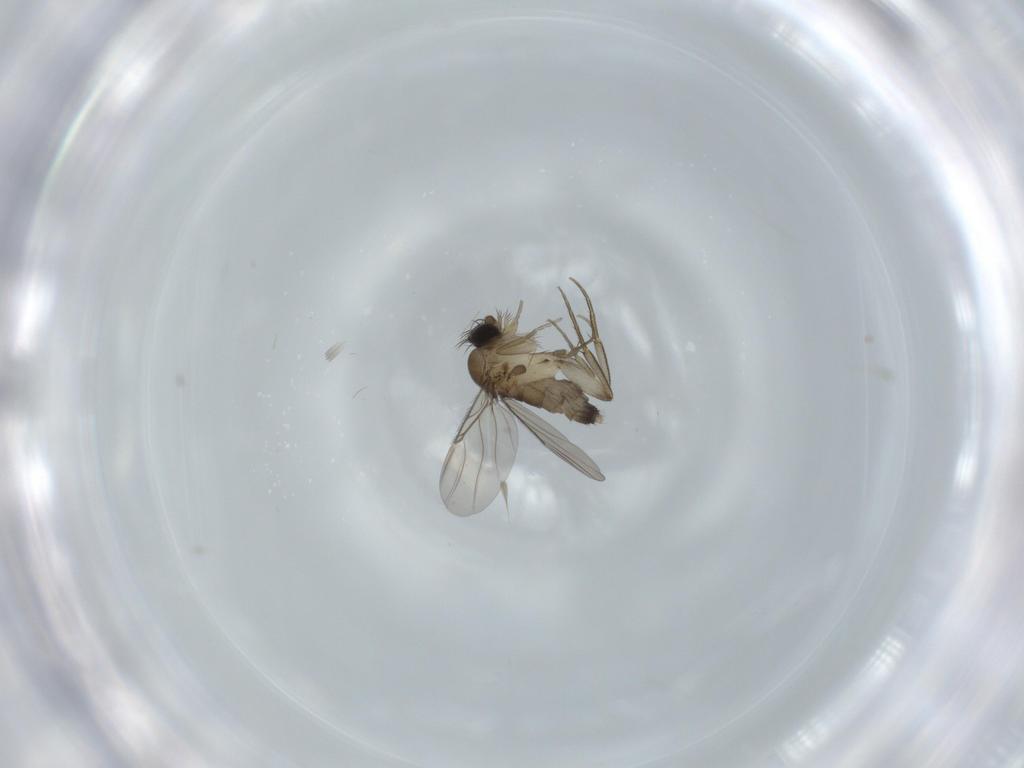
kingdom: Animalia
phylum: Arthropoda
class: Insecta
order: Diptera
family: Phoridae
